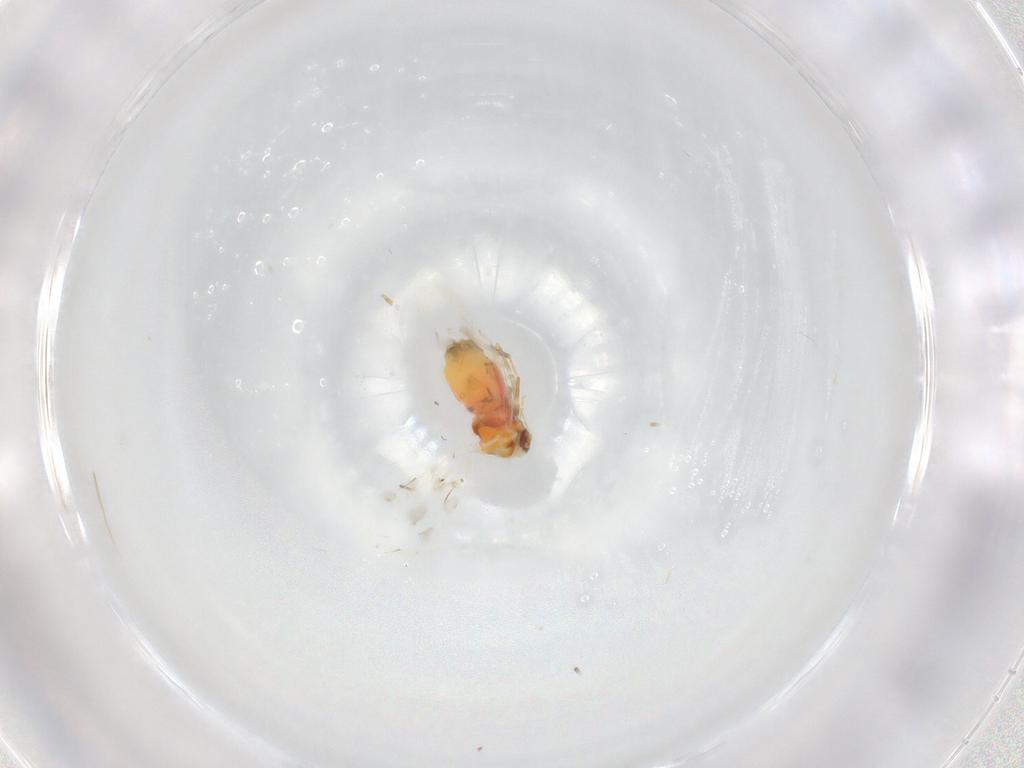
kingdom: Animalia
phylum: Arthropoda
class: Insecta
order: Hemiptera
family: Aleyrodidae
